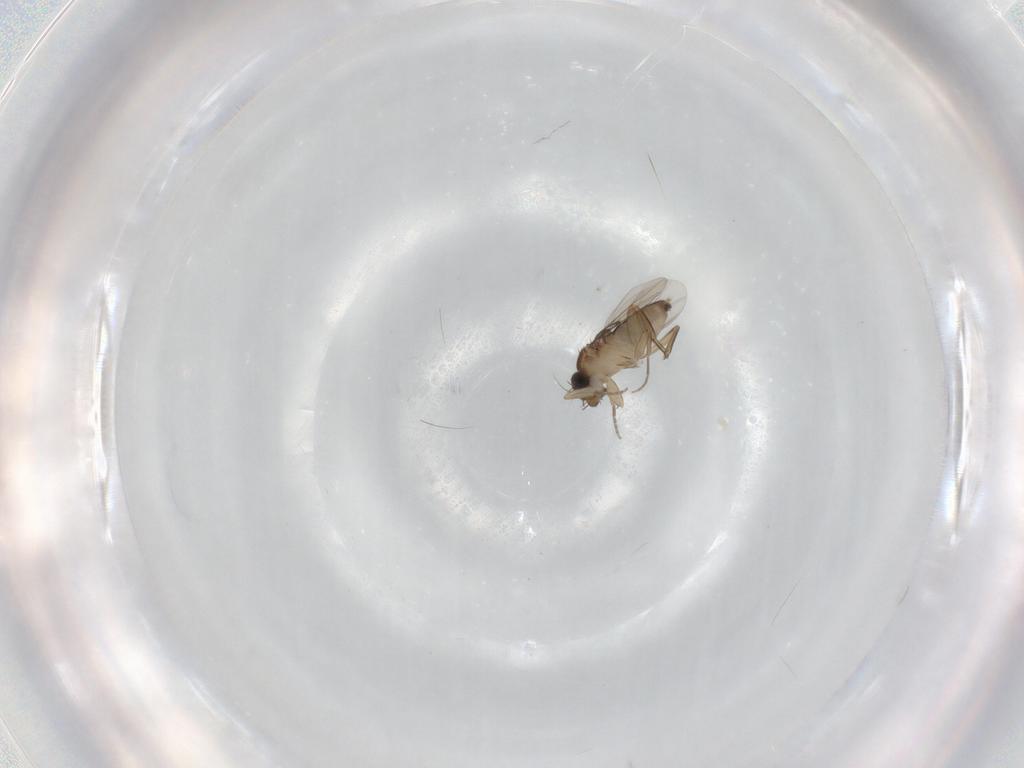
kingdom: Animalia
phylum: Arthropoda
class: Insecta
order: Diptera
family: Phoridae
